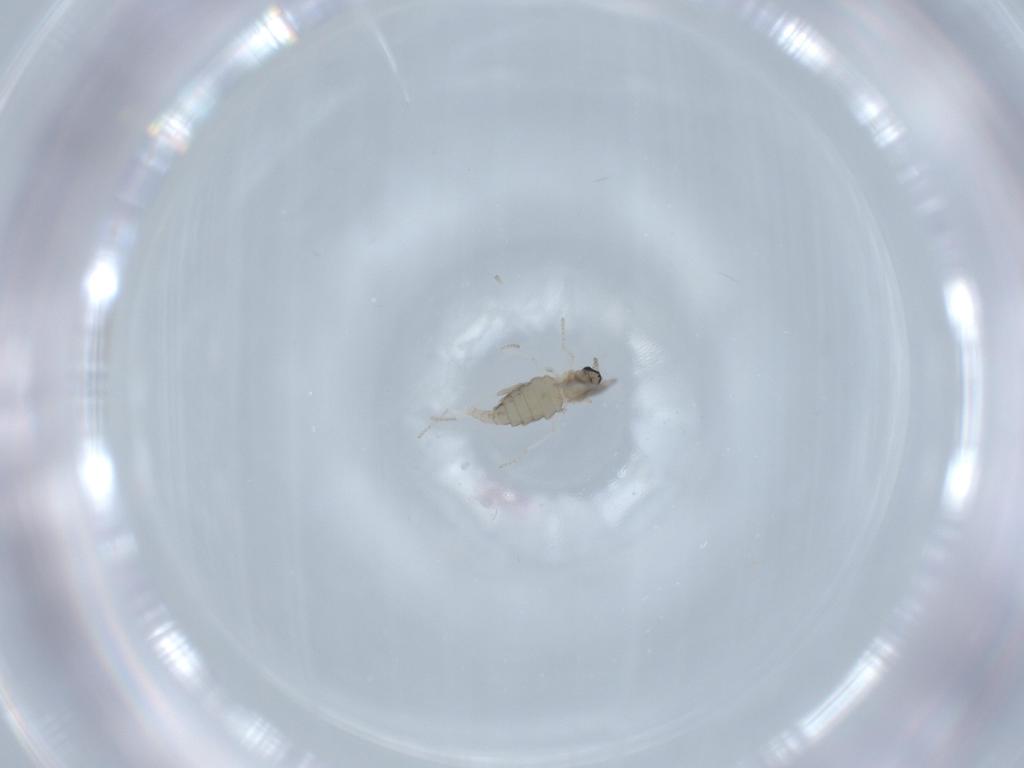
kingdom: Animalia
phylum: Arthropoda
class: Insecta
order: Diptera
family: Cecidomyiidae
